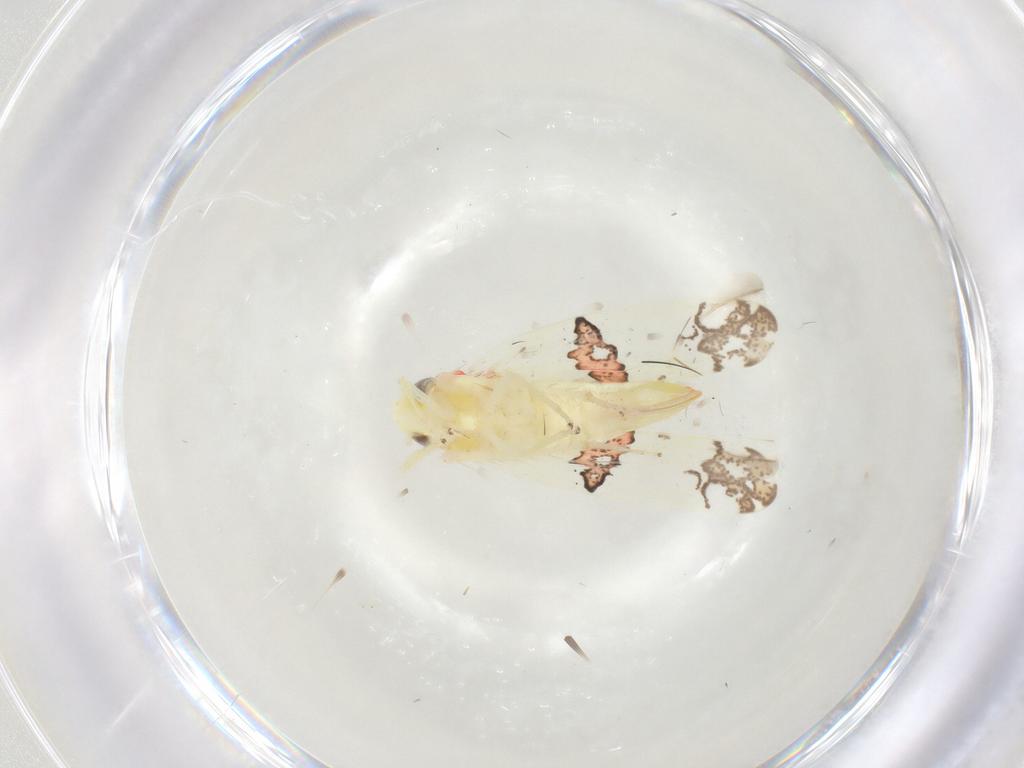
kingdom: Animalia
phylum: Arthropoda
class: Insecta
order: Hemiptera
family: Cicadellidae
